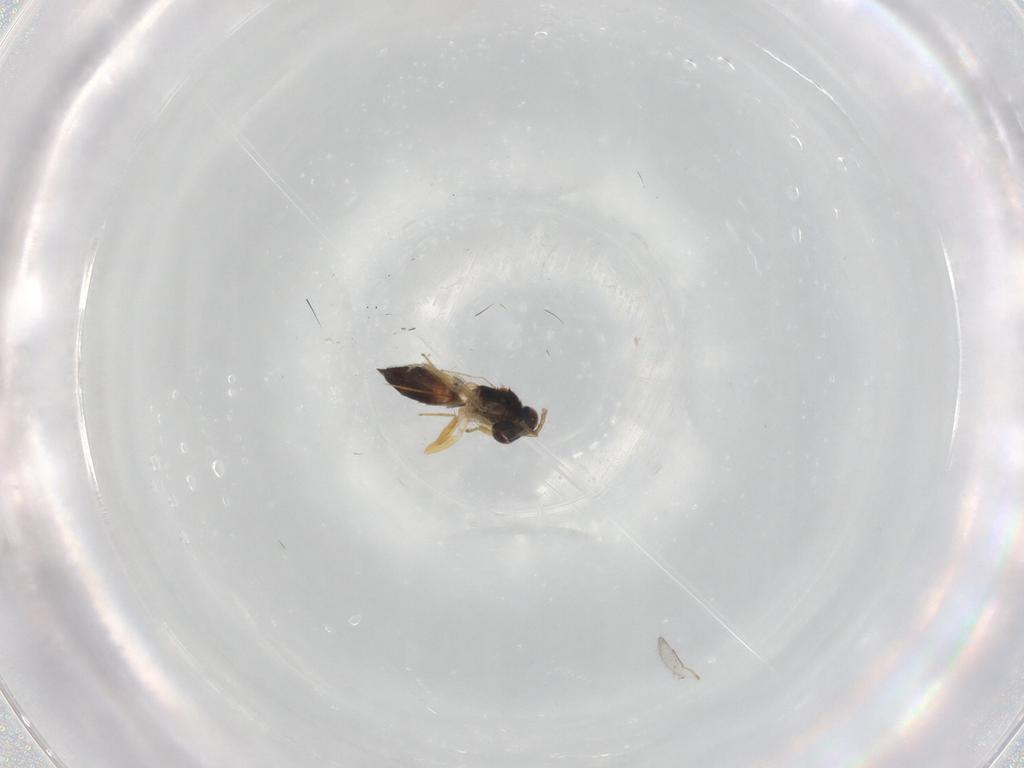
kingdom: Animalia
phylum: Arthropoda
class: Insecta
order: Hymenoptera
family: Eulophidae
